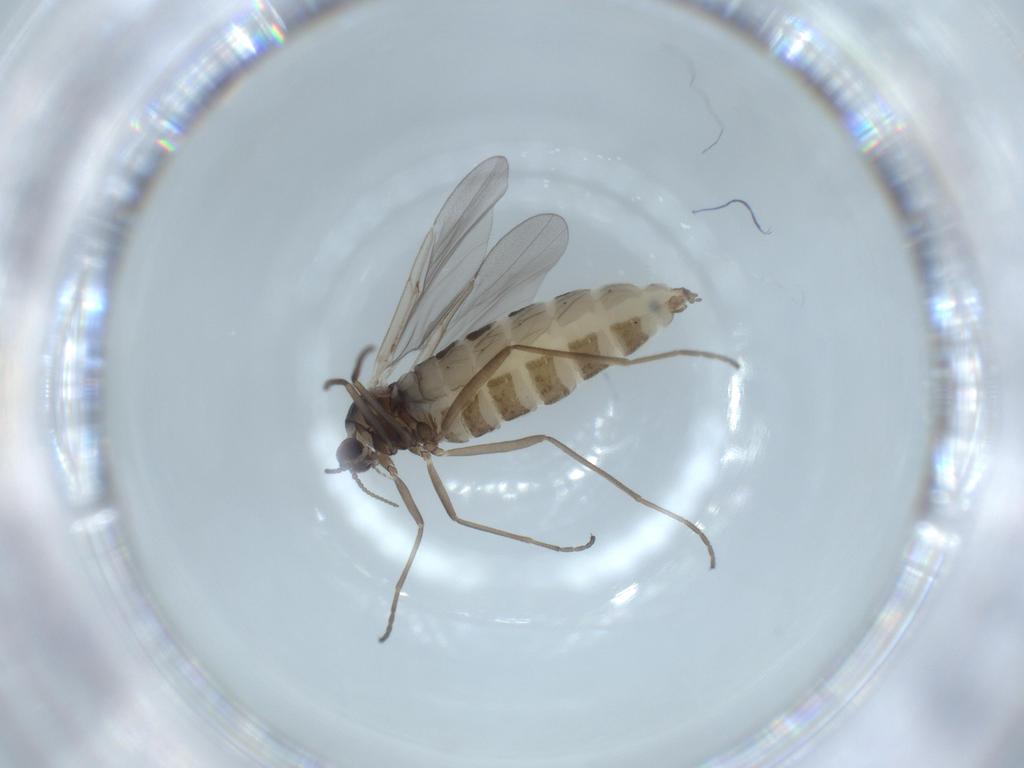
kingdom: Animalia
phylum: Arthropoda
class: Insecta
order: Diptera
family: Cecidomyiidae
